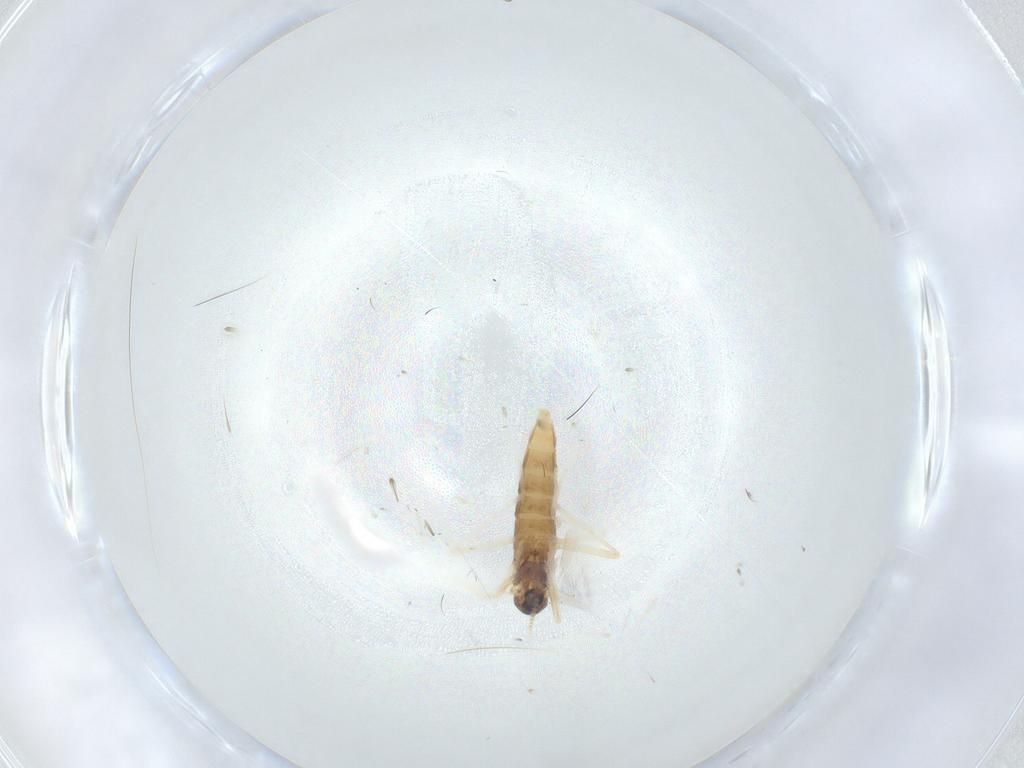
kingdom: Animalia
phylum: Arthropoda
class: Insecta
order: Diptera
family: Cecidomyiidae
